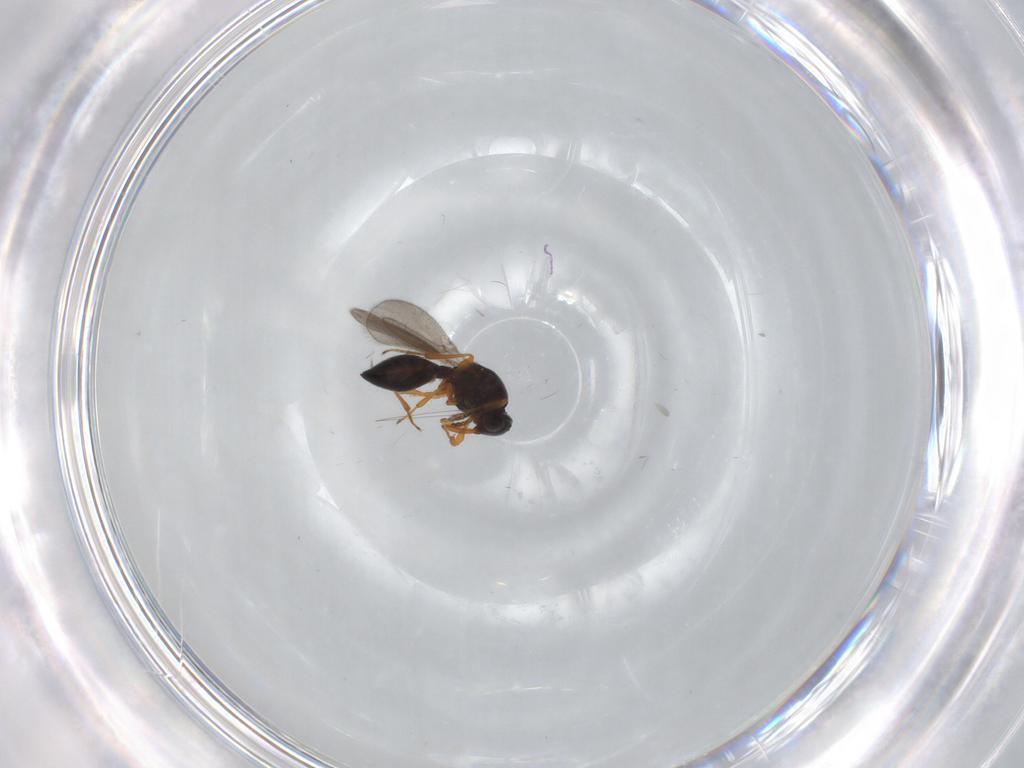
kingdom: Animalia
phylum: Arthropoda
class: Insecta
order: Hymenoptera
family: Platygastridae
